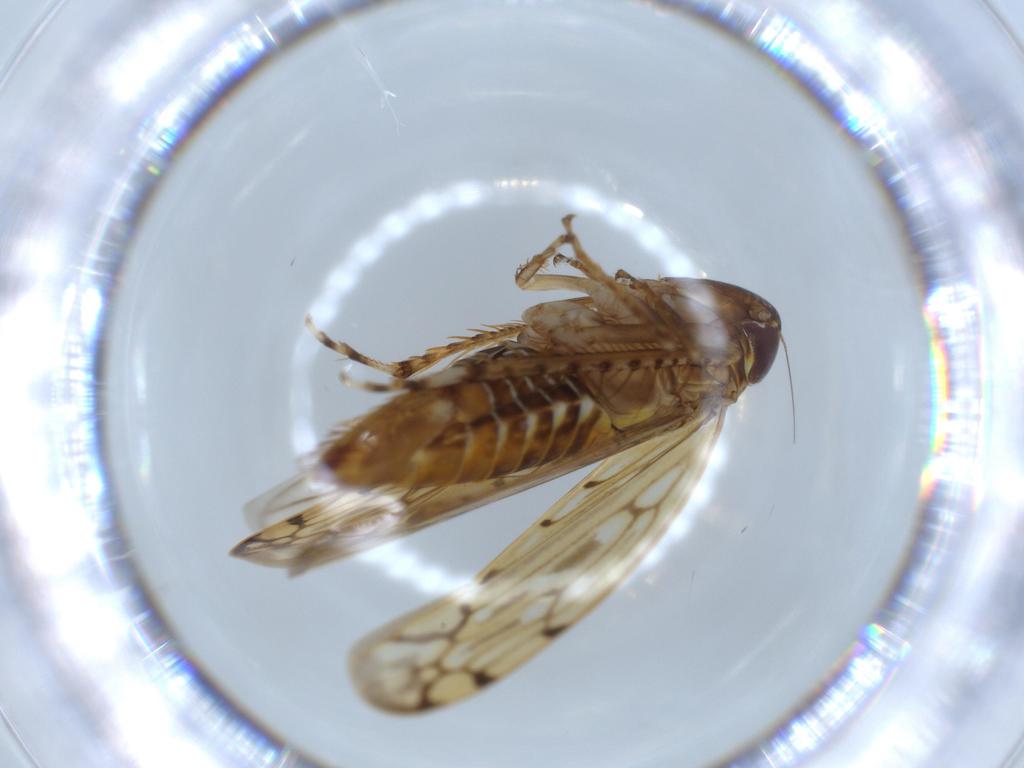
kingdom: Animalia
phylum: Arthropoda
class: Insecta
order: Hemiptera
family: Cicadellidae
